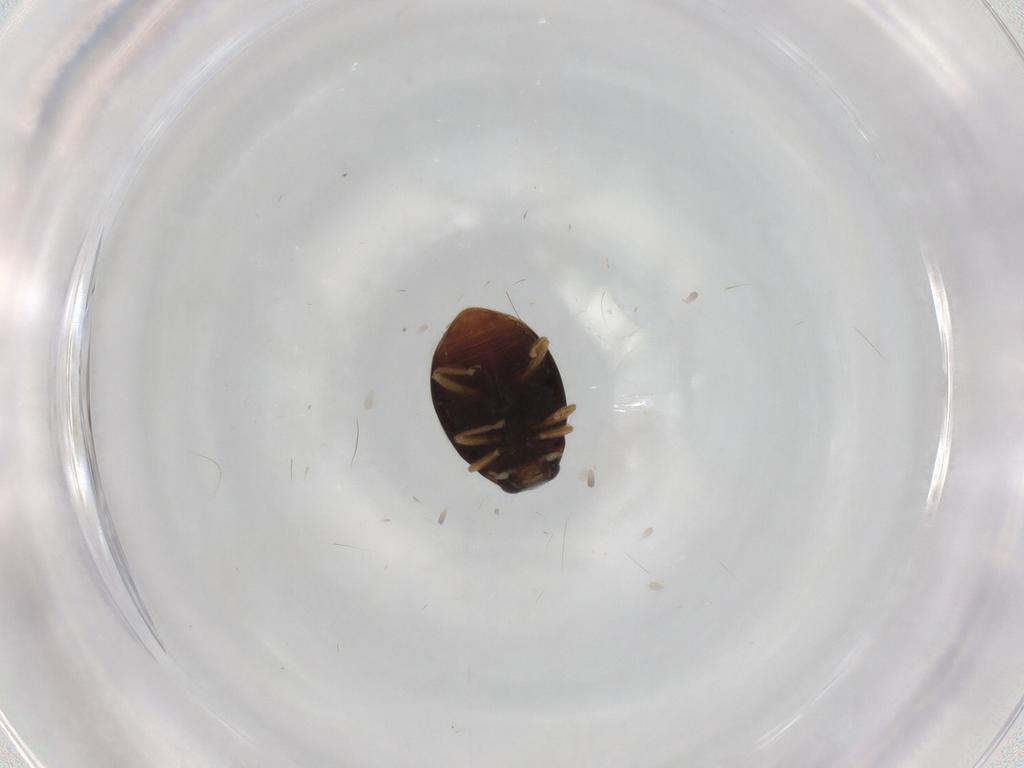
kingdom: Animalia
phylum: Arthropoda
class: Insecta
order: Coleoptera
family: Coccinellidae
